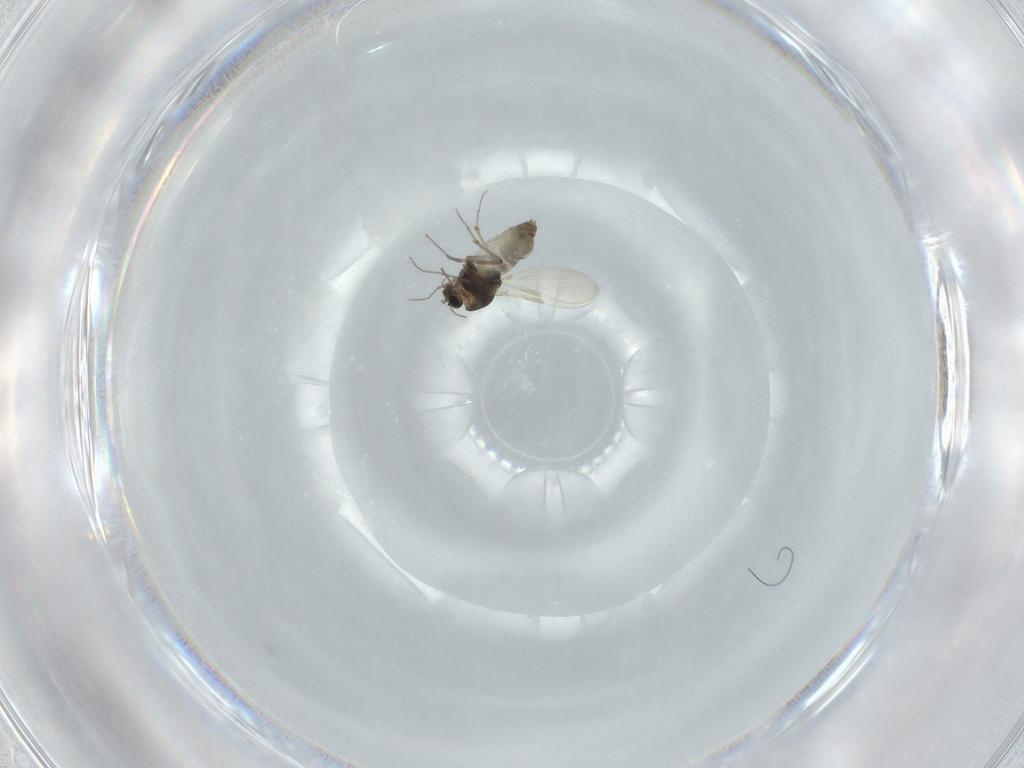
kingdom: Animalia
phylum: Arthropoda
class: Insecta
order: Diptera
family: Chironomidae
